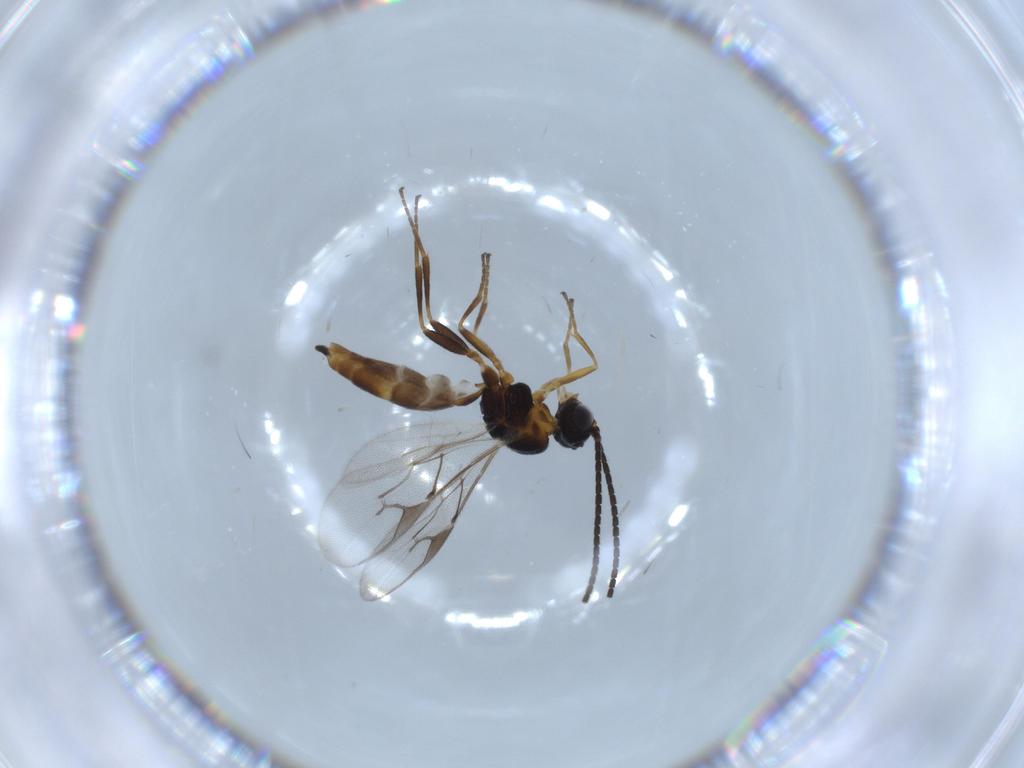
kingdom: Animalia
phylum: Arthropoda
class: Insecta
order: Hymenoptera
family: Braconidae
